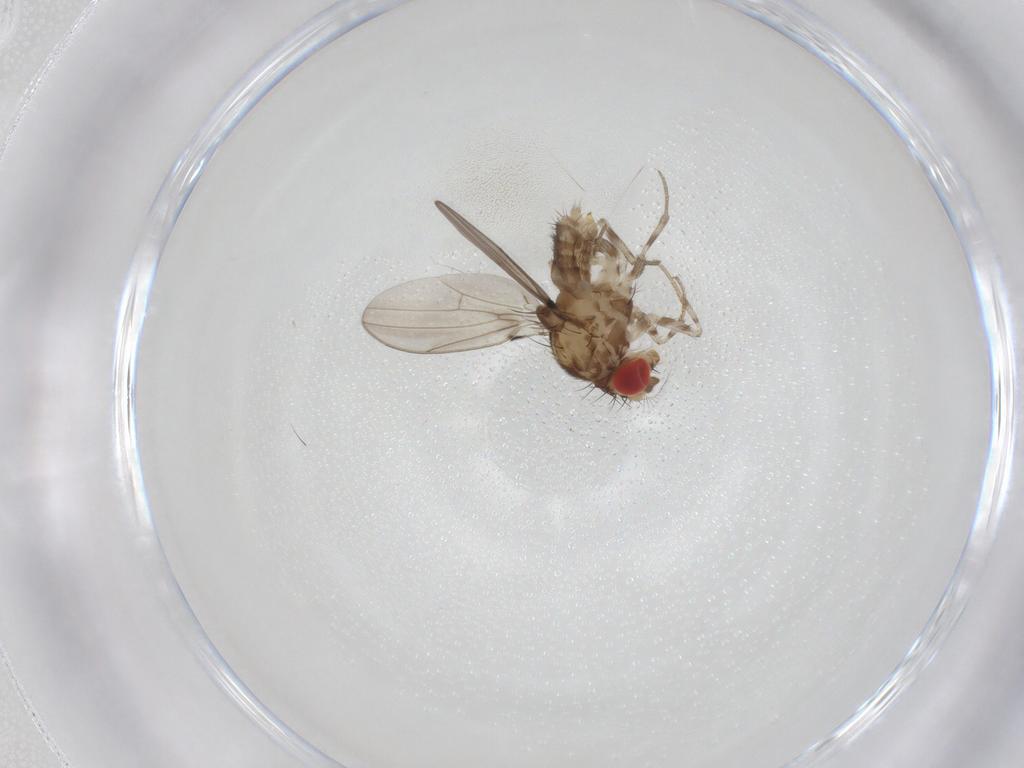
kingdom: Animalia
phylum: Arthropoda
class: Insecta
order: Diptera
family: Drosophilidae
